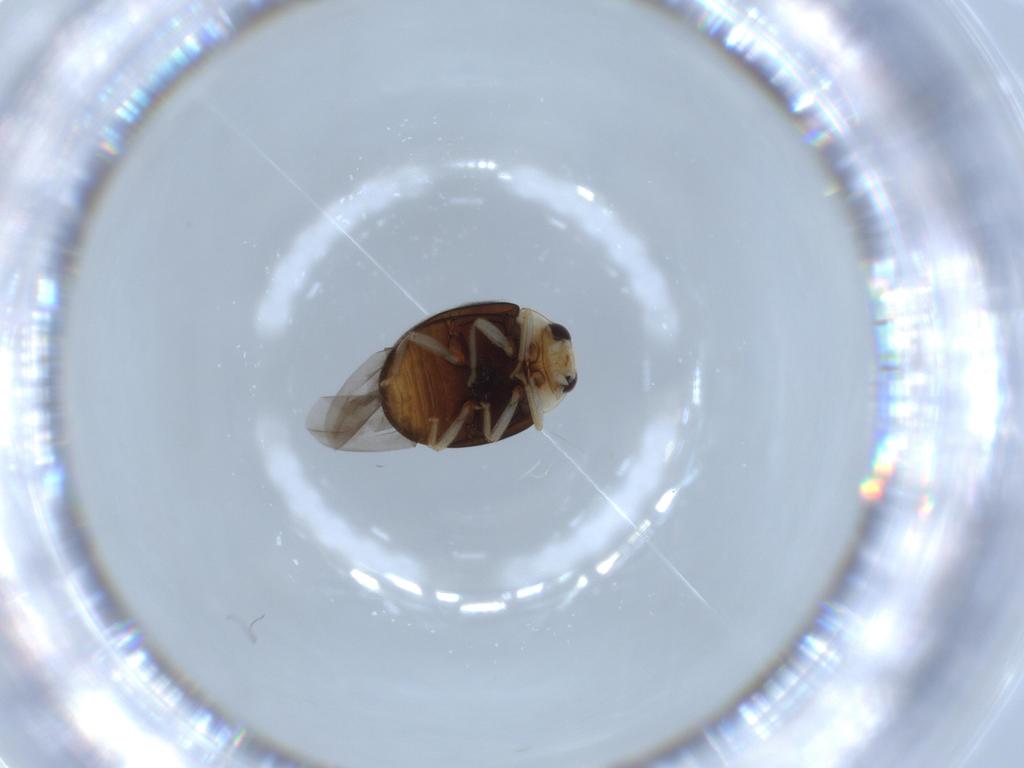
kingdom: Animalia
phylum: Arthropoda
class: Insecta
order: Coleoptera
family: Coccinellidae
